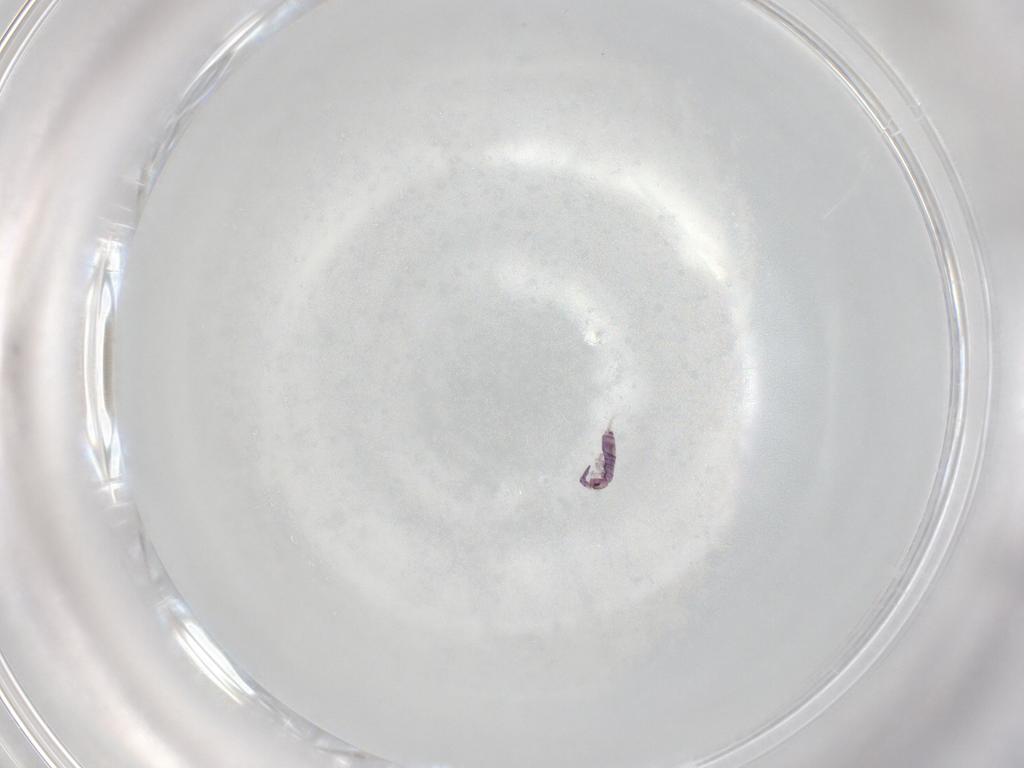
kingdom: Animalia
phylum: Arthropoda
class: Collembola
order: Entomobryomorpha
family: Entomobryidae
